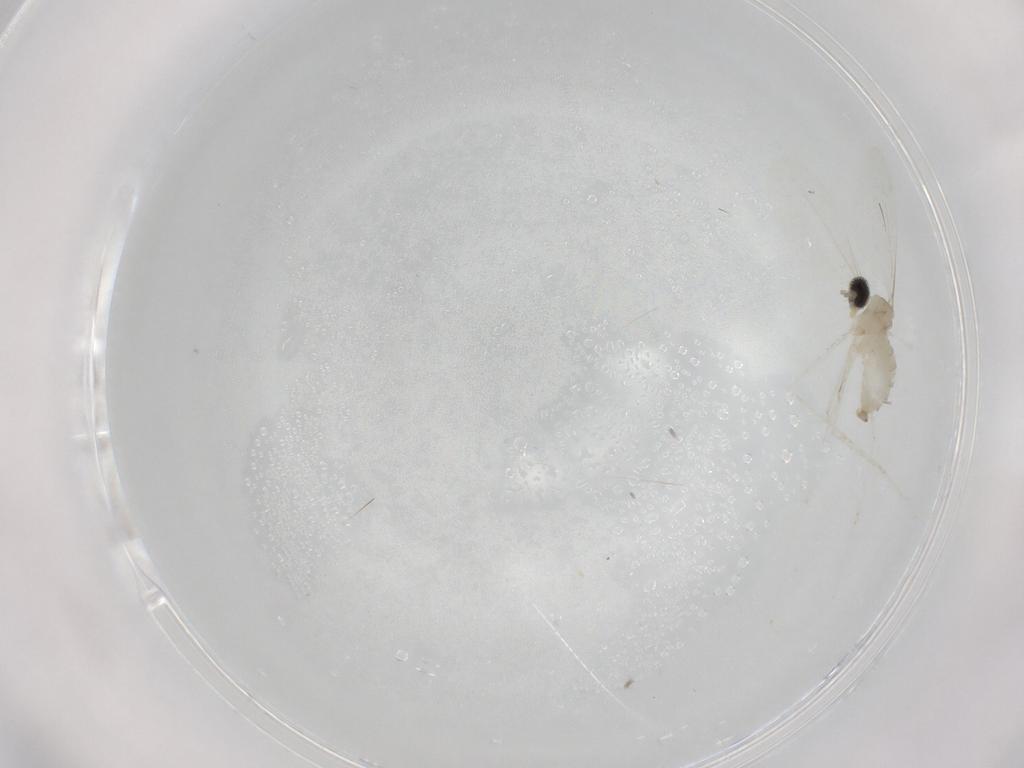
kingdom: Animalia
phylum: Arthropoda
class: Insecta
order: Diptera
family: Cecidomyiidae
